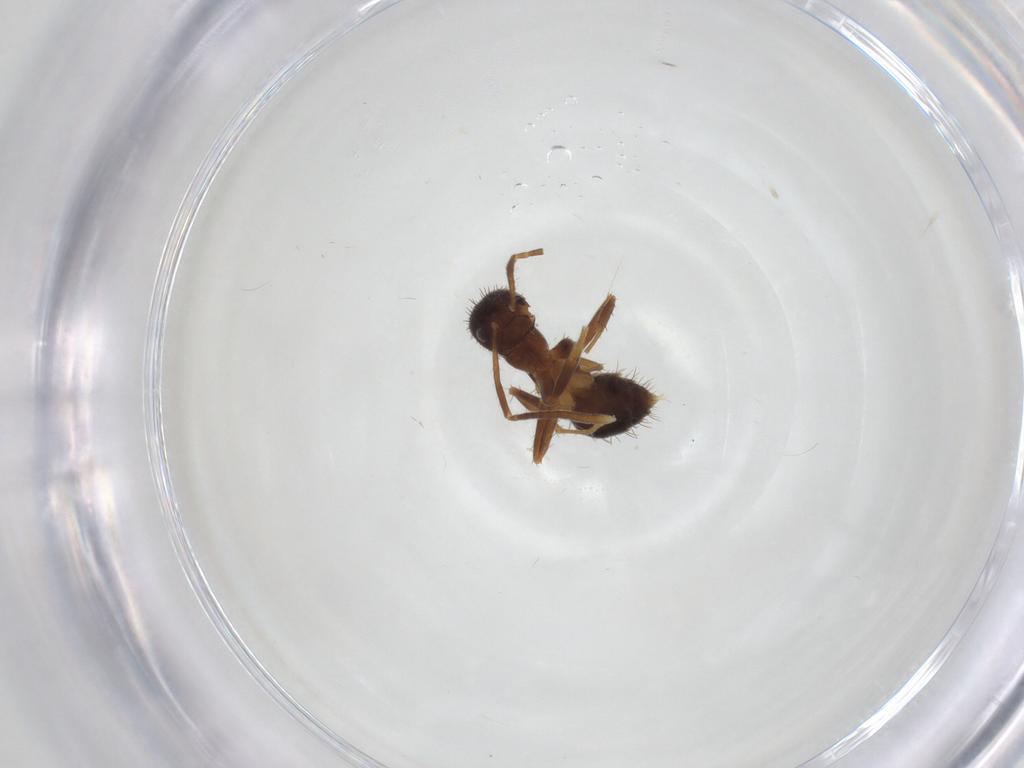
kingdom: Animalia
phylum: Arthropoda
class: Insecta
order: Hymenoptera
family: Formicidae
